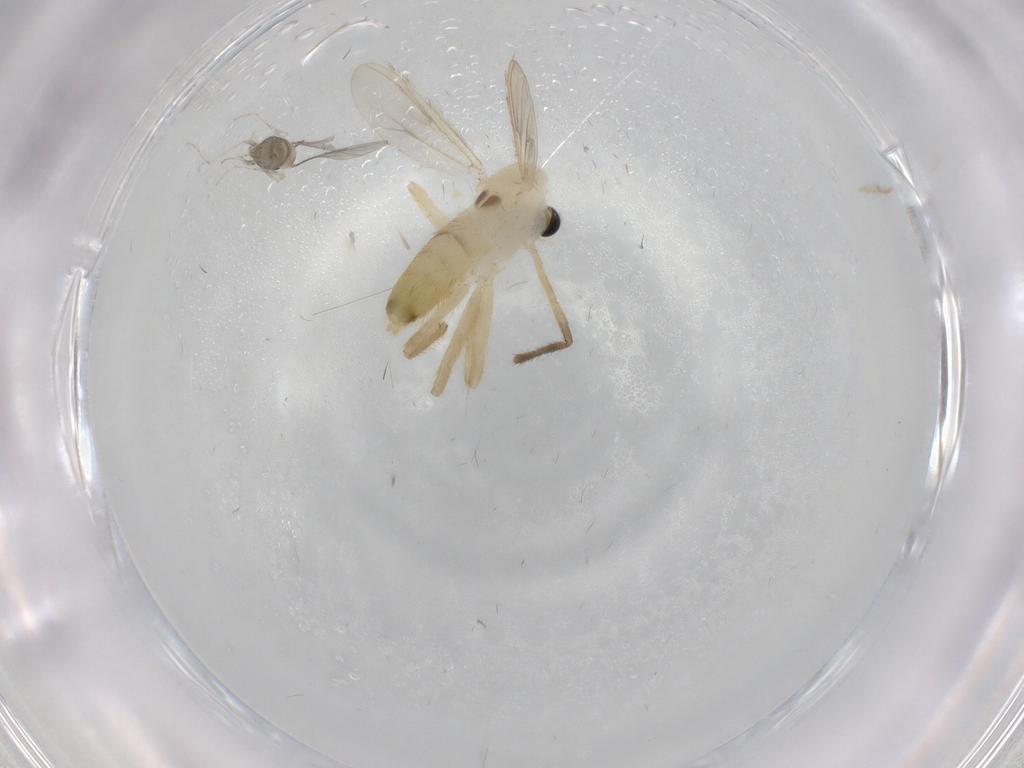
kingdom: Animalia
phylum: Arthropoda
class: Insecta
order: Diptera
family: Chironomidae
